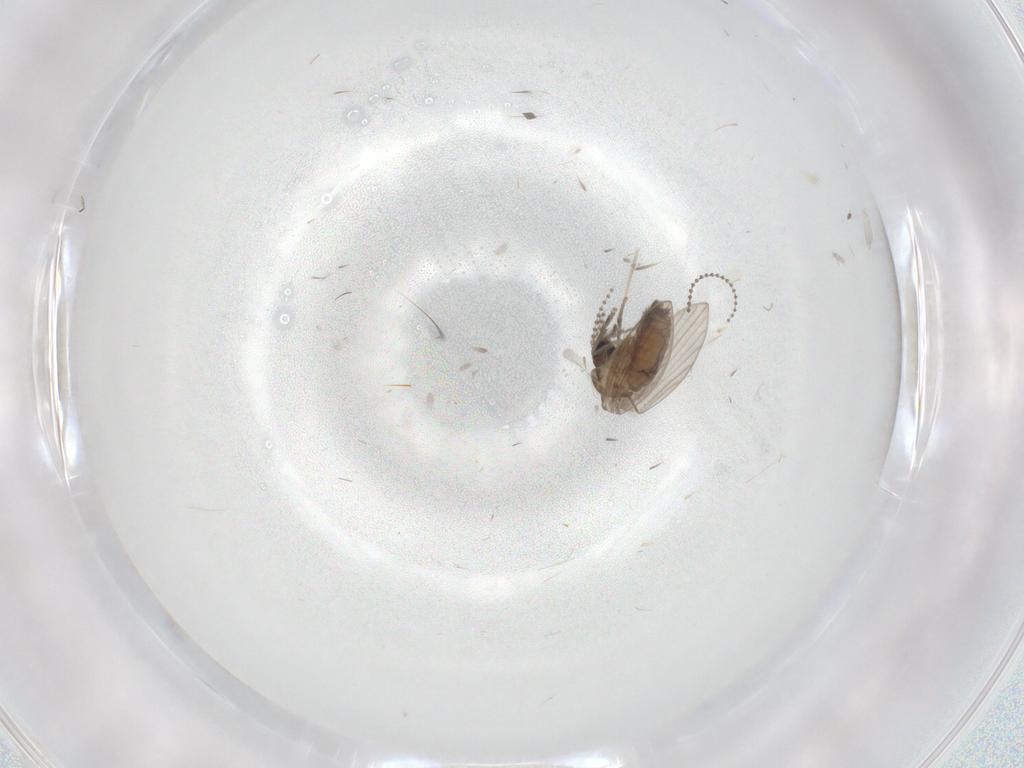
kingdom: Animalia
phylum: Arthropoda
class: Insecta
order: Diptera
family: Psychodidae
